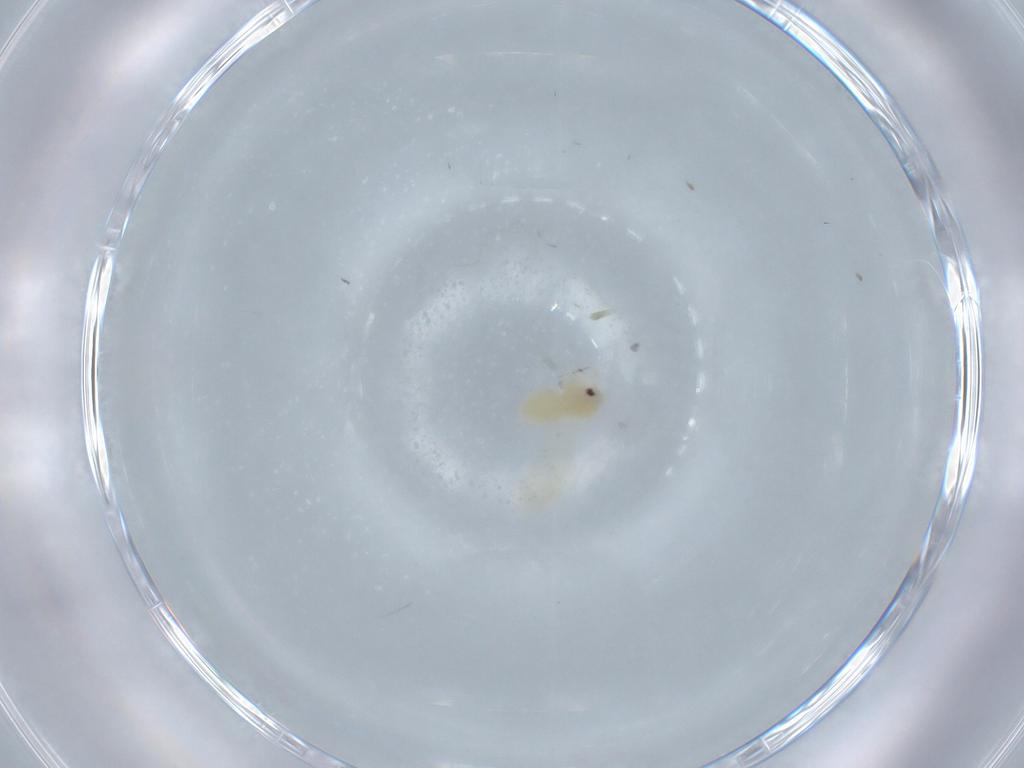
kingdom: Animalia
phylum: Arthropoda
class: Insecta
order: Hemiptera
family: Aleyrodidae
